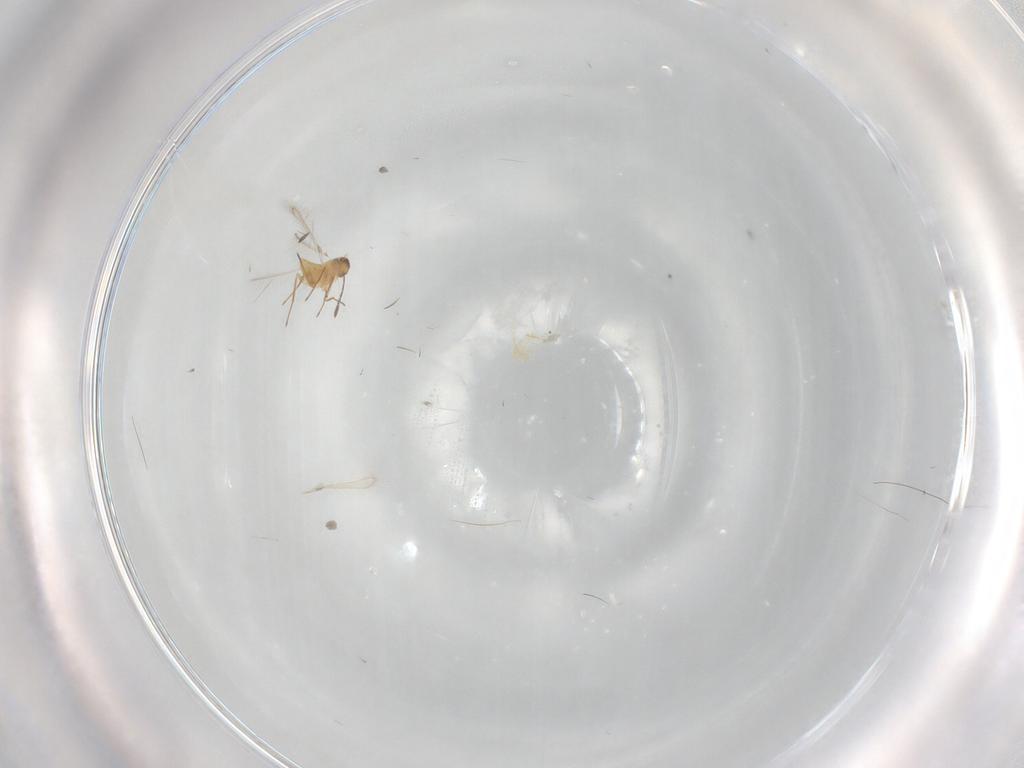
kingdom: Animalia
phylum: Arthropoda
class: Insecta
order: Hymenoptera
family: Mymaridae
